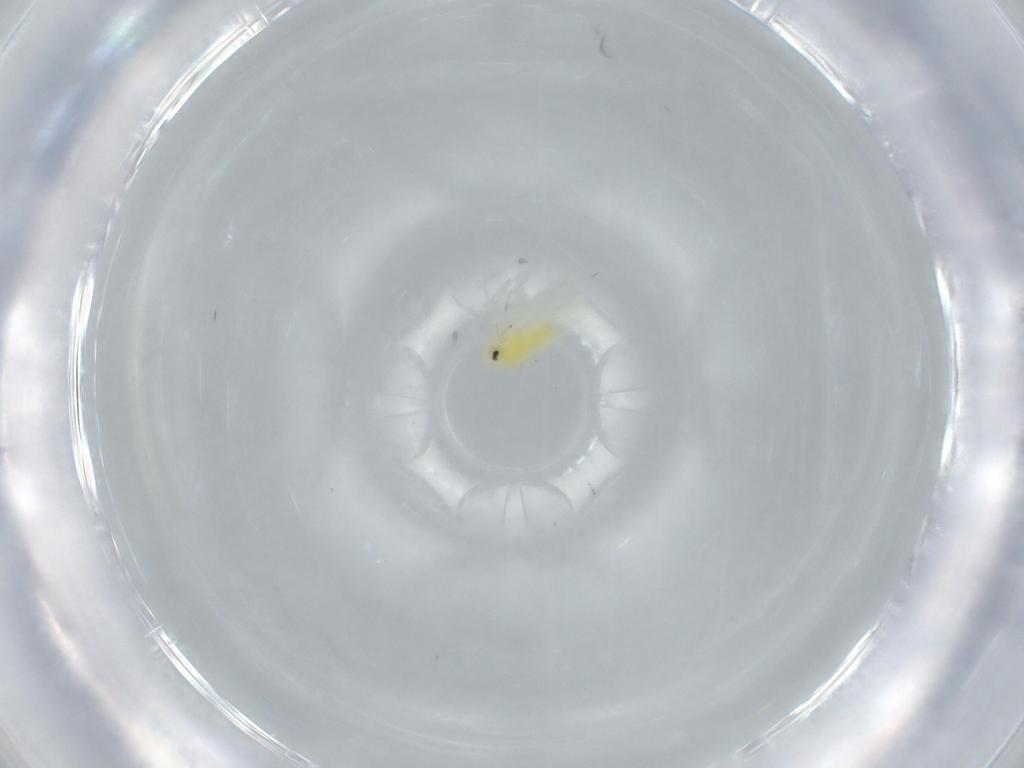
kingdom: Animalia
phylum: Arthropoda
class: Insecta
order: Hemiptera
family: Aleyrodidae
